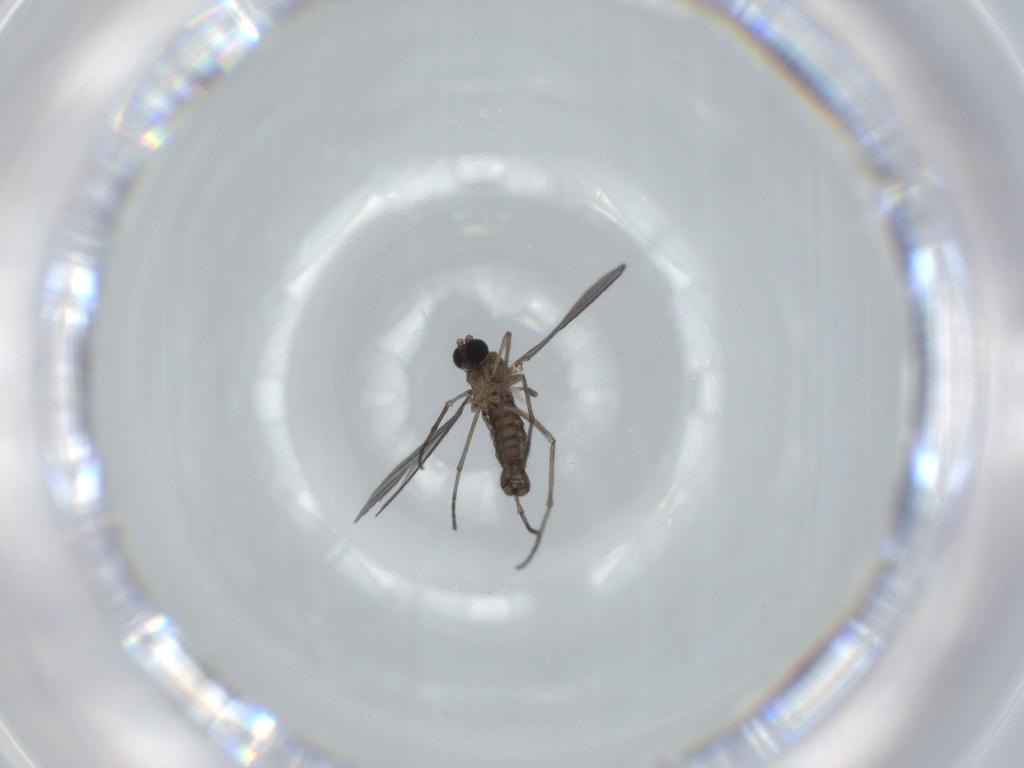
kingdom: Animalia
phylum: Arthropoda
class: Insecta
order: Diptera
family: Sciaridae
